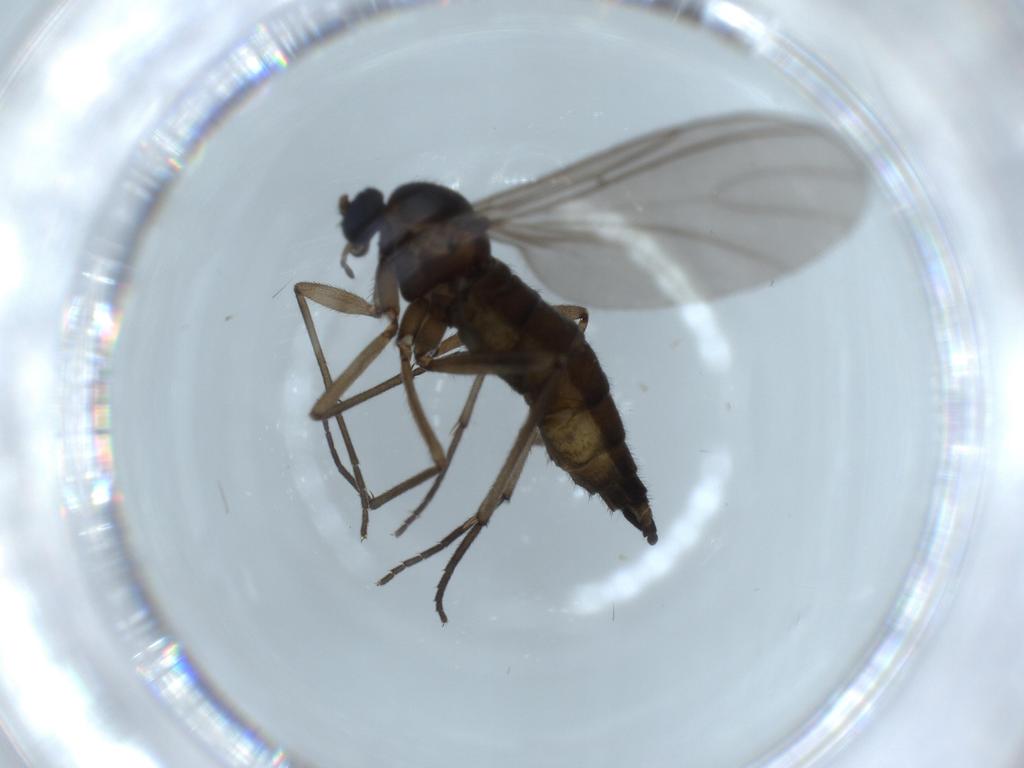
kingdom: Animalia
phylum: Arthropoda
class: Insecta
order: Diptera
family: Sciaridae
